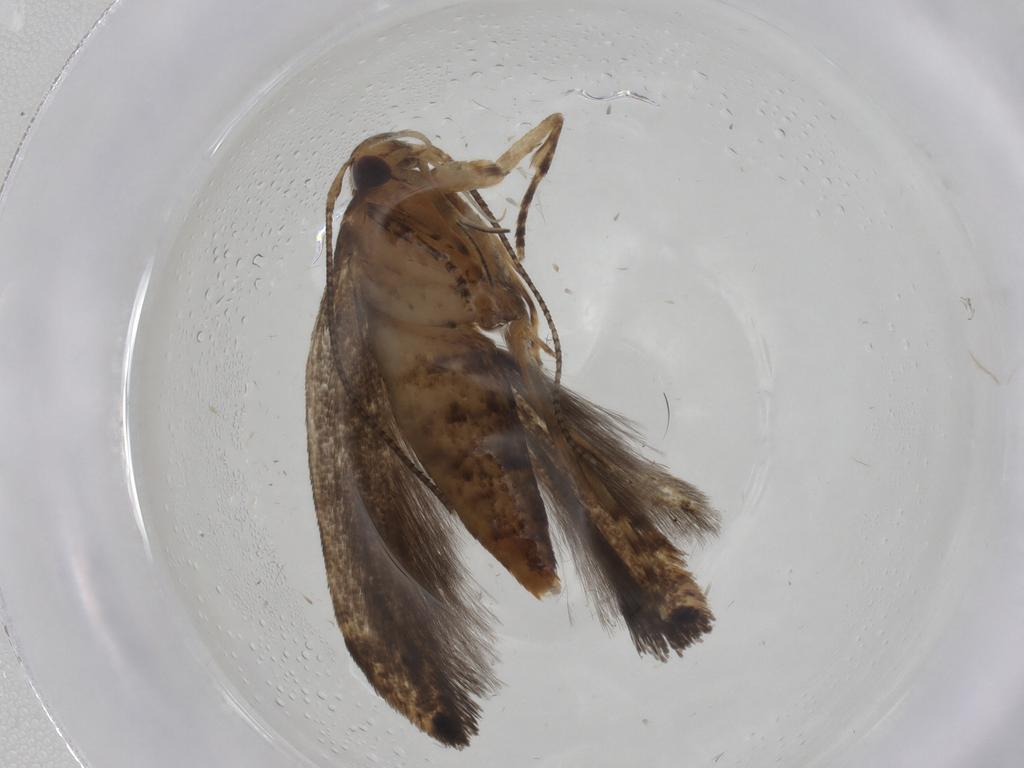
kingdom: Animalia
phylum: Arthropoda
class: Insecta
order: Lepidoptera
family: Cosmopterigidae
